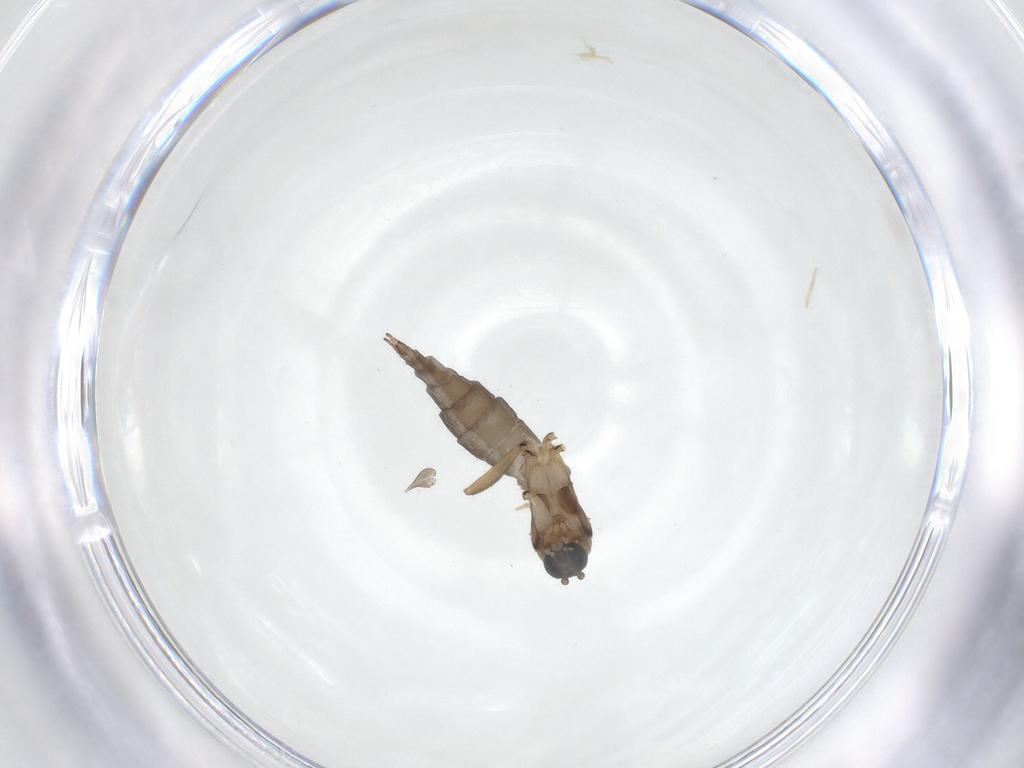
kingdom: Animalia
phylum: Arthropoda
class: Insecta
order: Diptera
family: Sciaridae
